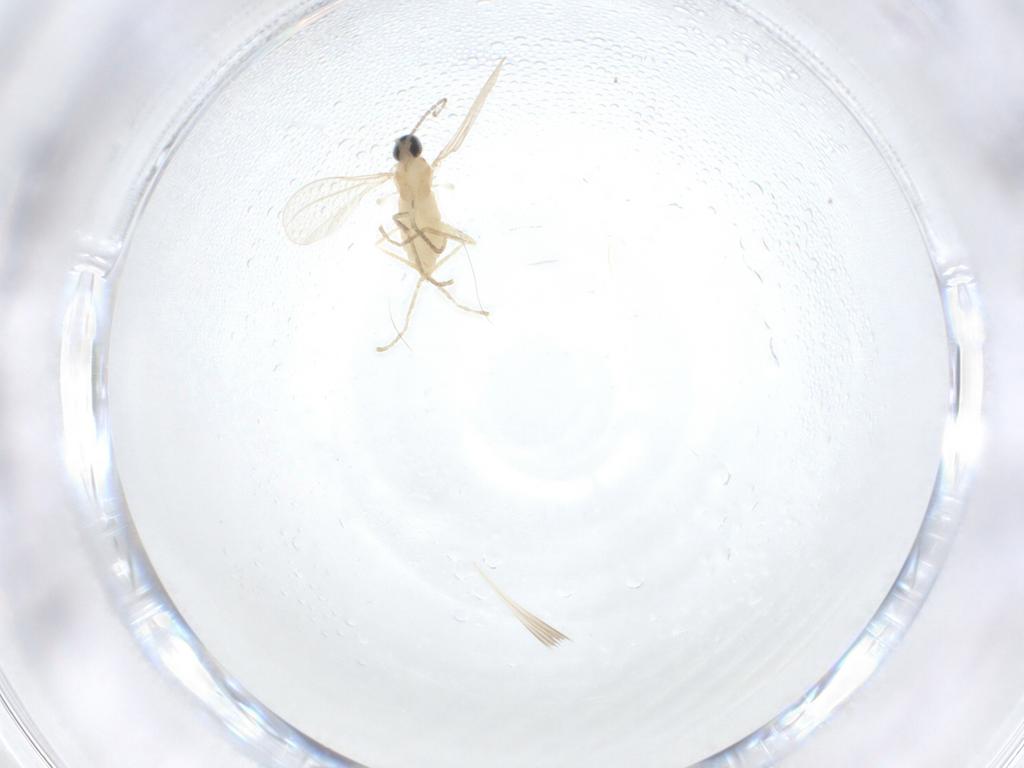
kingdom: Animalia
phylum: Arthropoda
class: Insecta
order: Diptera
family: Cecidomyiidae
